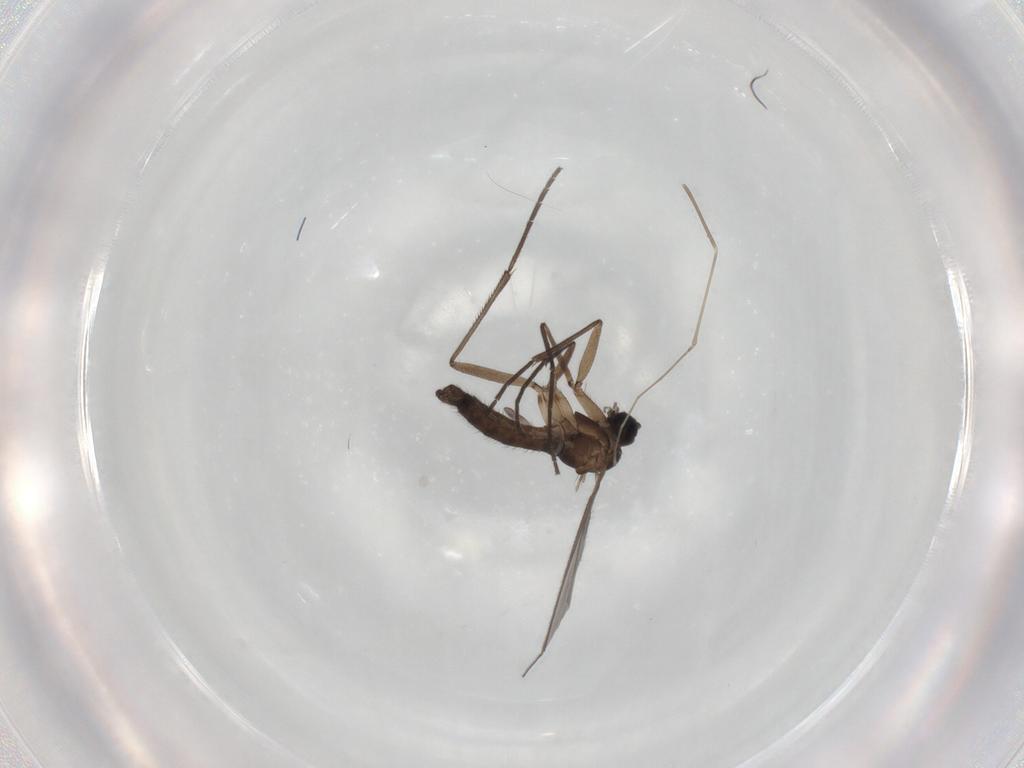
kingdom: Animalia
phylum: Arthropoda
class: Insecta
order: Diptera
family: Sciaridae
